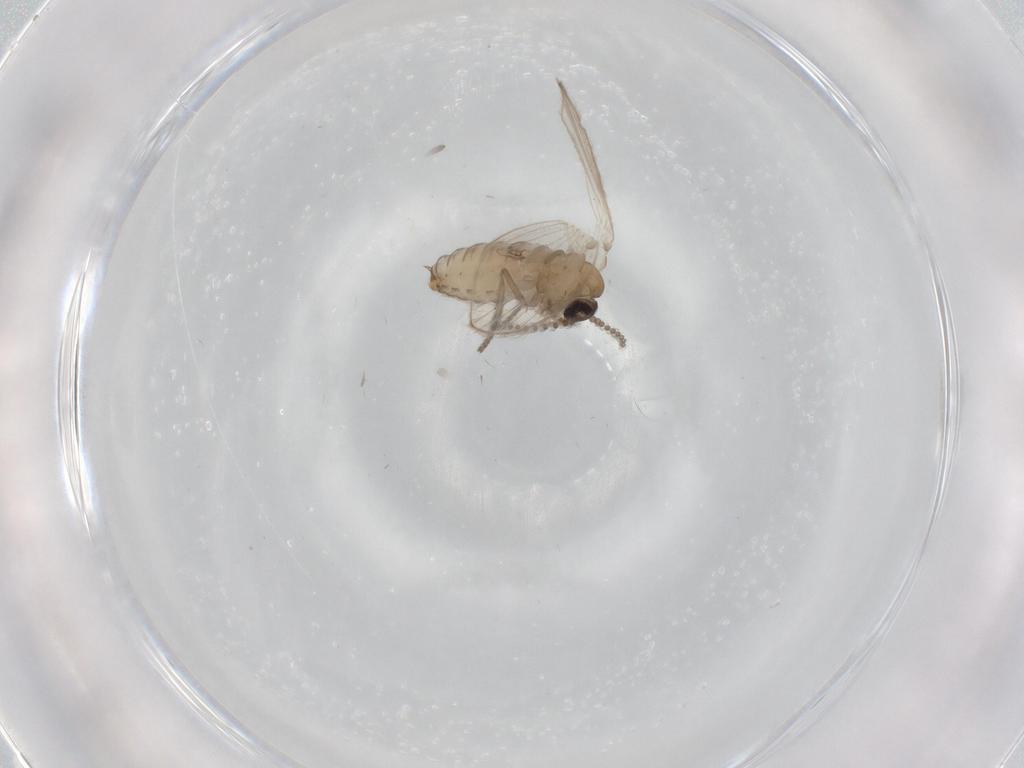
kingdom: Animalia
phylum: Arthropoda
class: Insecta
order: Diptera
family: Psychodidae
